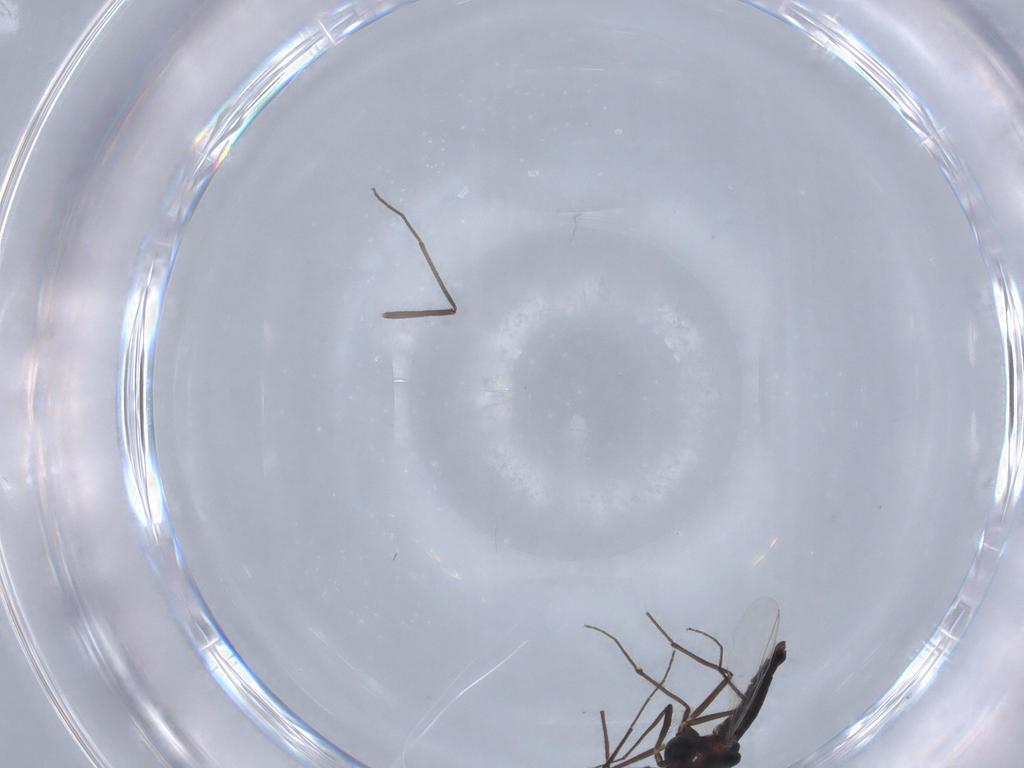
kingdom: Animalia
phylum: Arthropoda
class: Insecta
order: Diptera
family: Chironomidae
